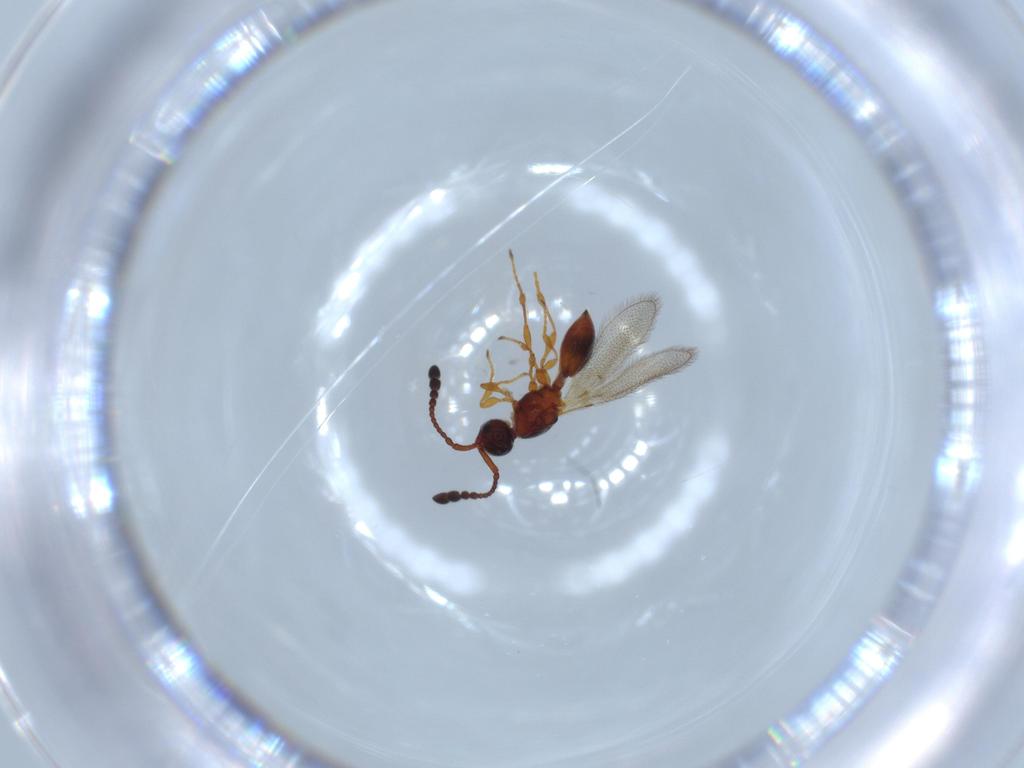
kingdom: Animalia
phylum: Arthropoda
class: Insecta
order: Hymenoptera
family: Diapriidae
